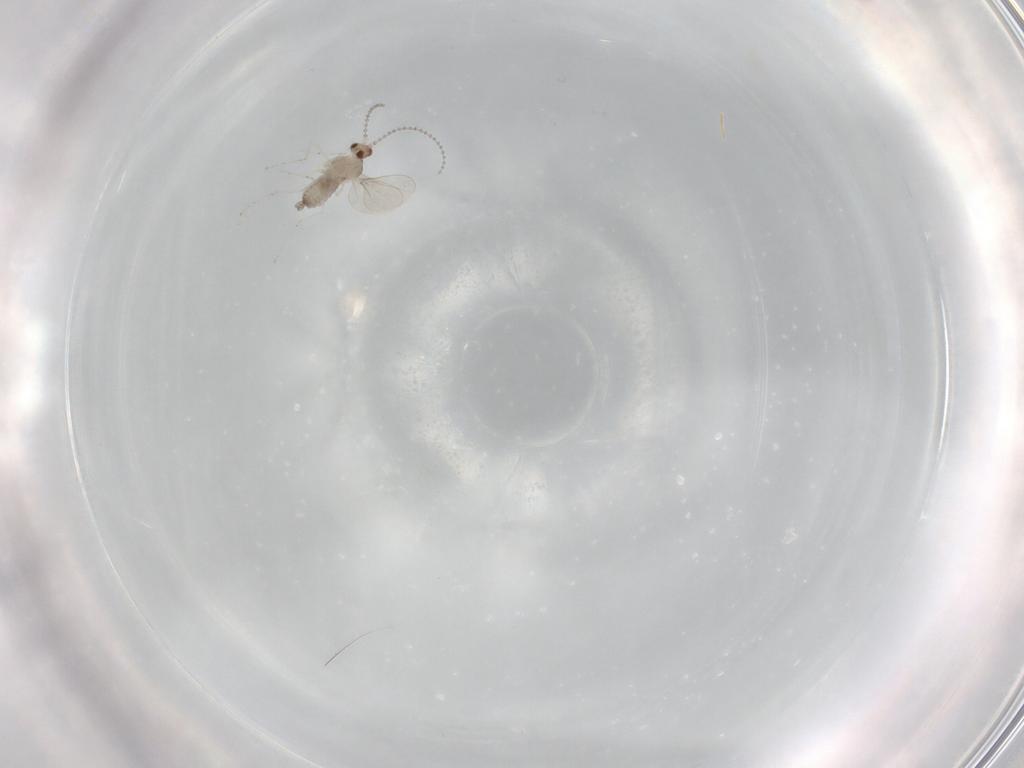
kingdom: Animalia
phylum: Arthropoda
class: Insecta
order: Diptera
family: Cecidomyiidae
